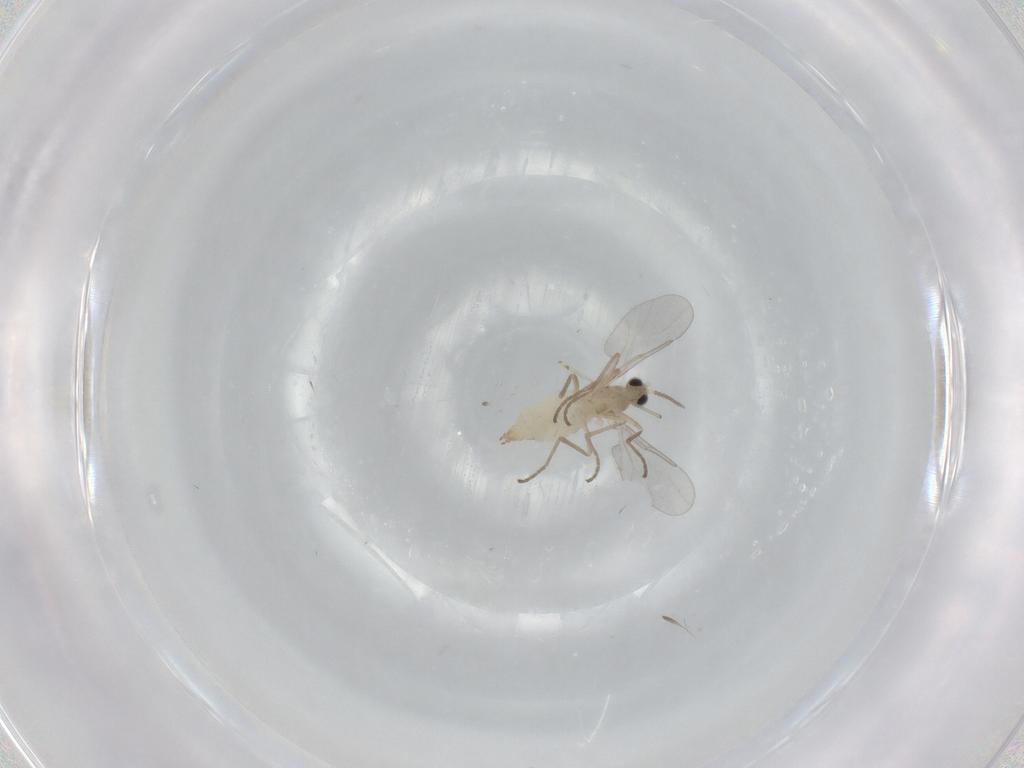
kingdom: Animalia
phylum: Arthropoda
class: Insecta
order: Diptera
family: Cecidomyiidae
